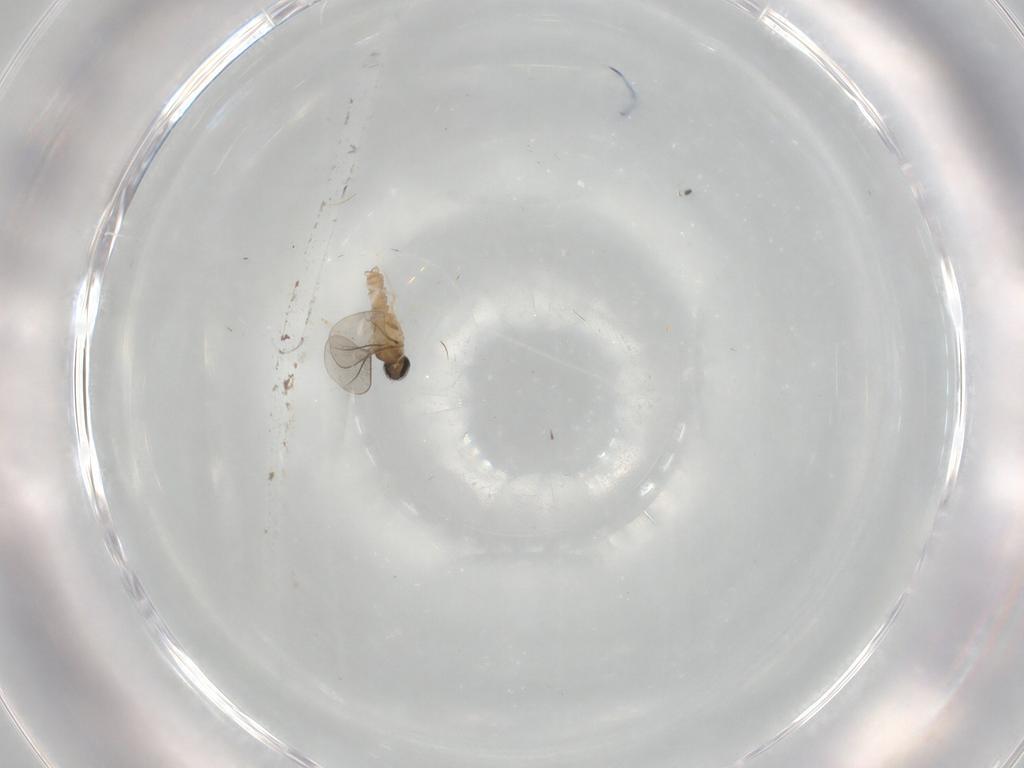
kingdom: Animalia
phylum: Arthropoda
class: Insecta
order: Diptera
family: Cecidomyiidae
